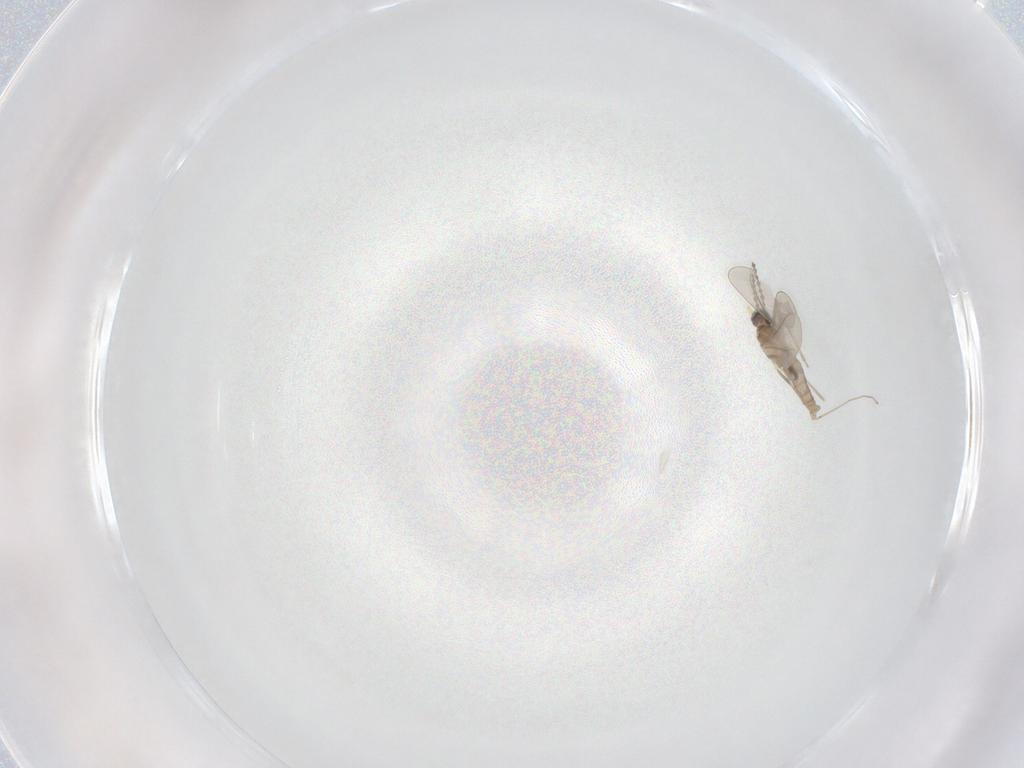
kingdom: Animalia
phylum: Arthropoda
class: Insecta
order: Diptera
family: Cecidomyiidae
